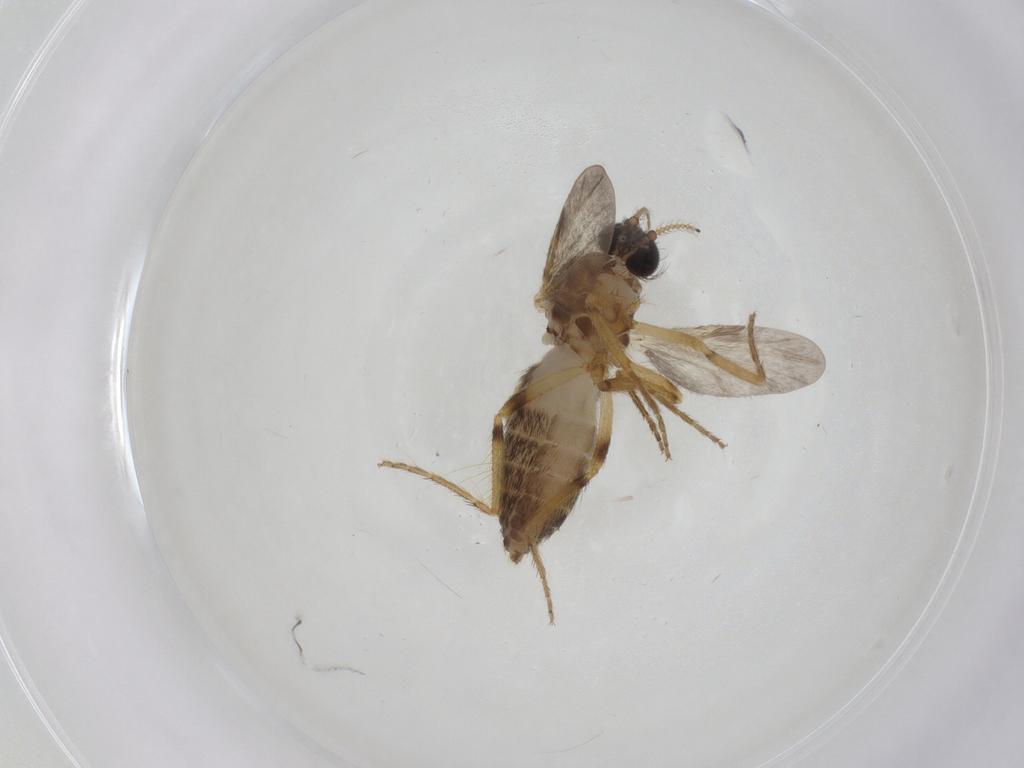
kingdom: Animalia
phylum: Arthropoda
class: Insecta
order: Diptera
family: Ceratopogonidae
